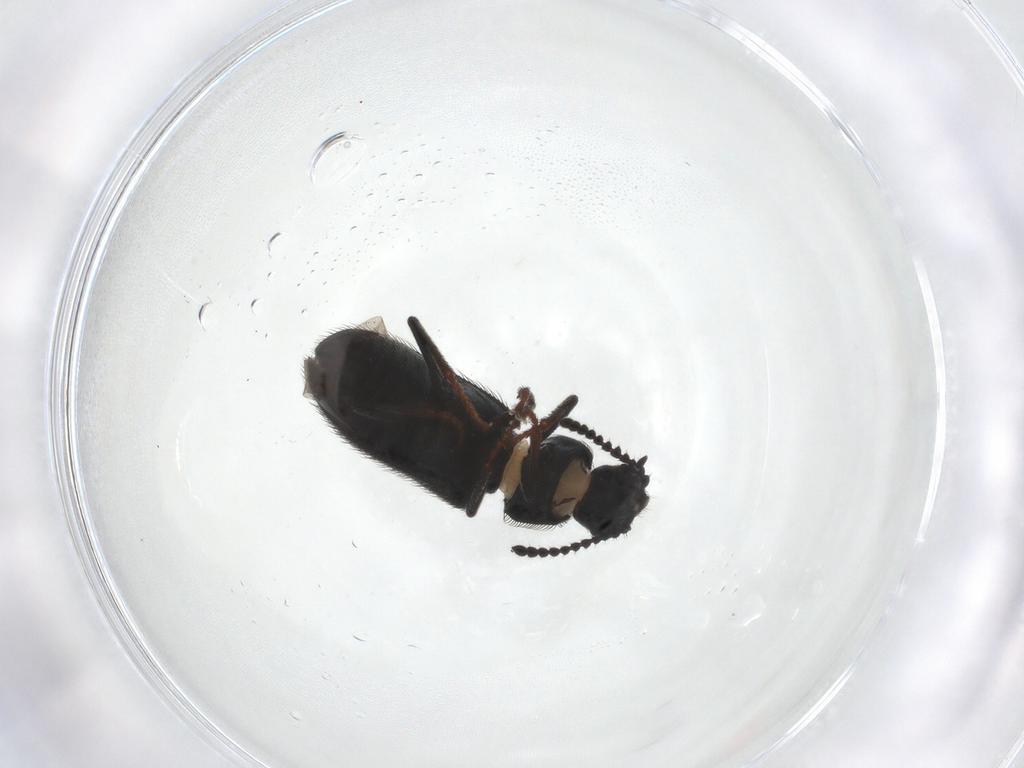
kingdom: Animalia
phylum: Arthropoda
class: Insecta
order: Coleoptera
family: Melyridae
